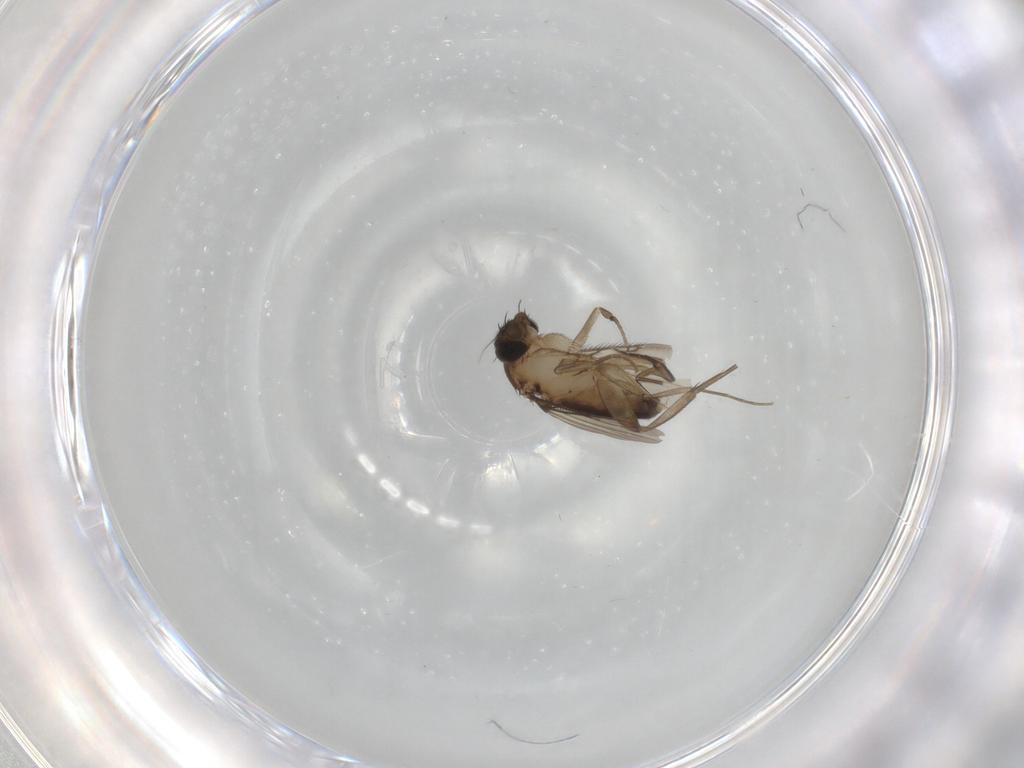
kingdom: Animalia
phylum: Arthropoda
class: Insecta
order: Diptera
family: Phoridae
